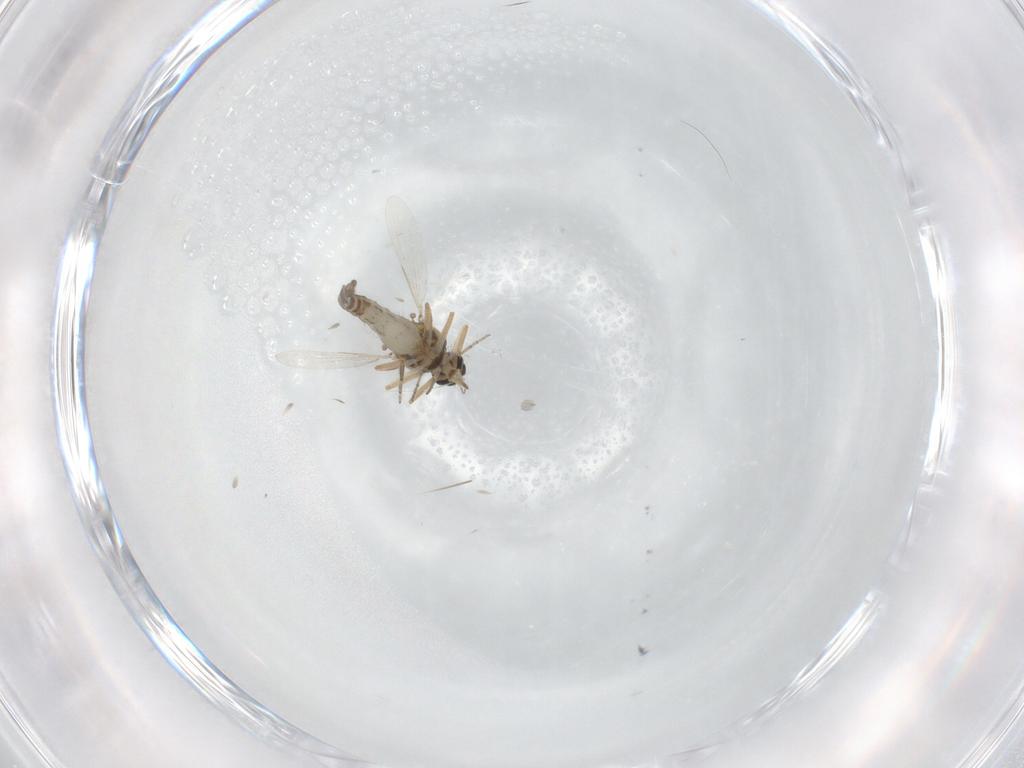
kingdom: Animalia
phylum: Arthropoda
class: Insecta
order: Diptera
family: Ceratopogonidae
